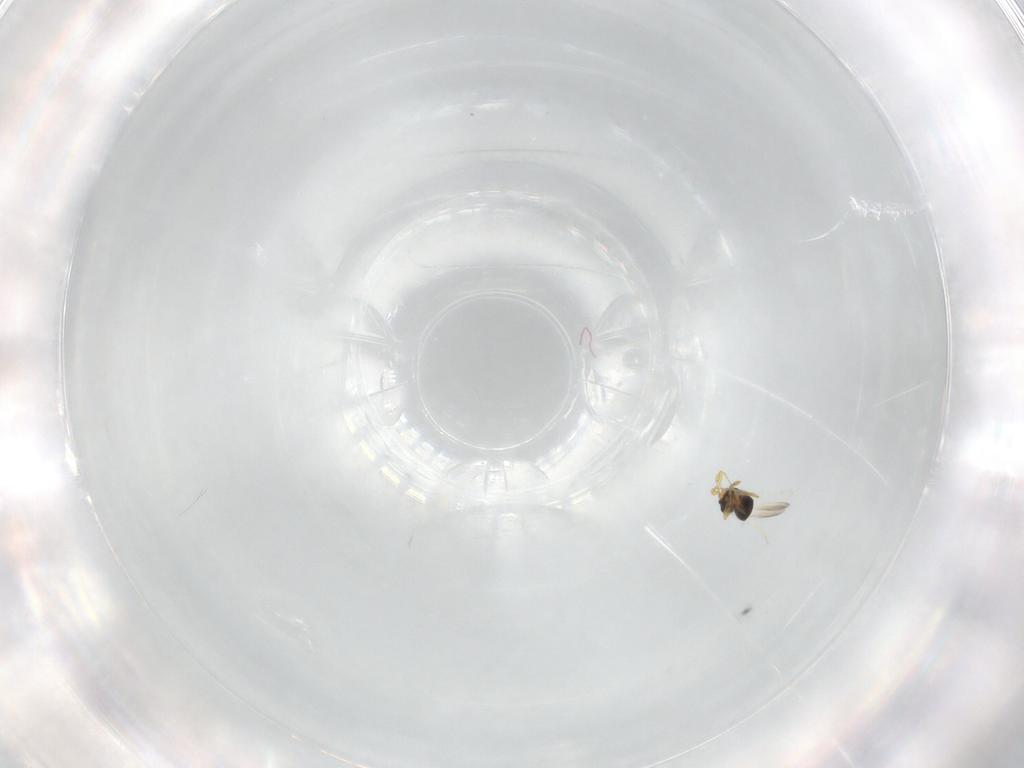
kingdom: Animalia
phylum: Arthropoda
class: Insecta
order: Hymenoptera
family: Platygastridae
